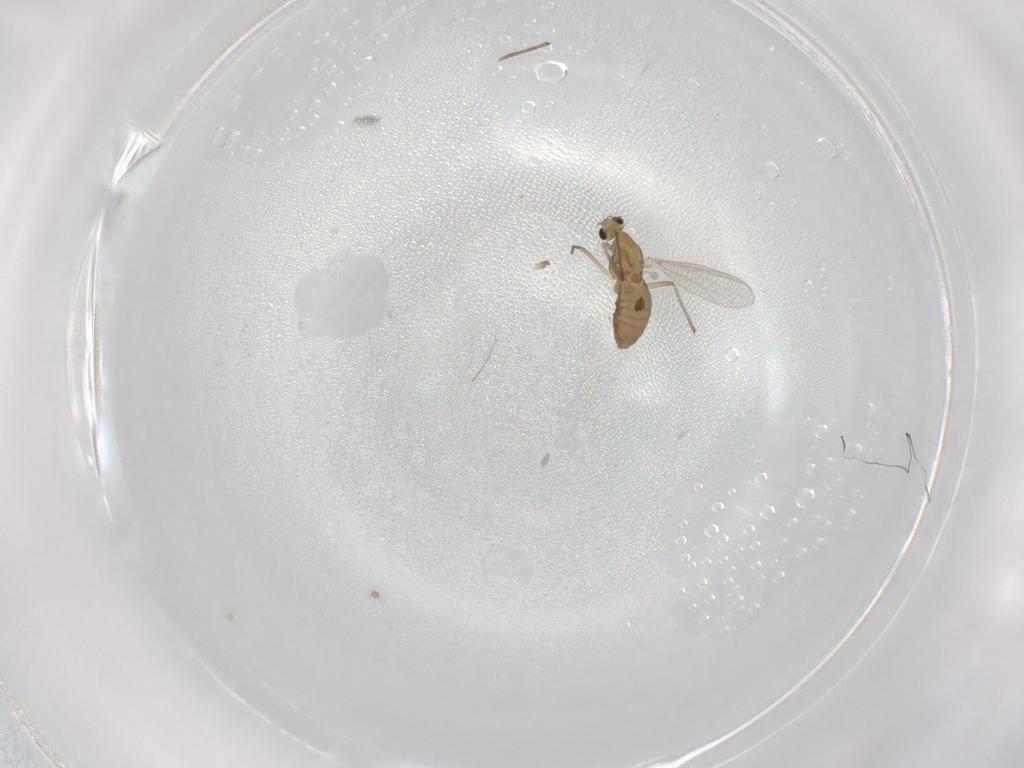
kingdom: Animalia
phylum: Arthropoda
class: Insecta
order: Diptera
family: Chironomidae
